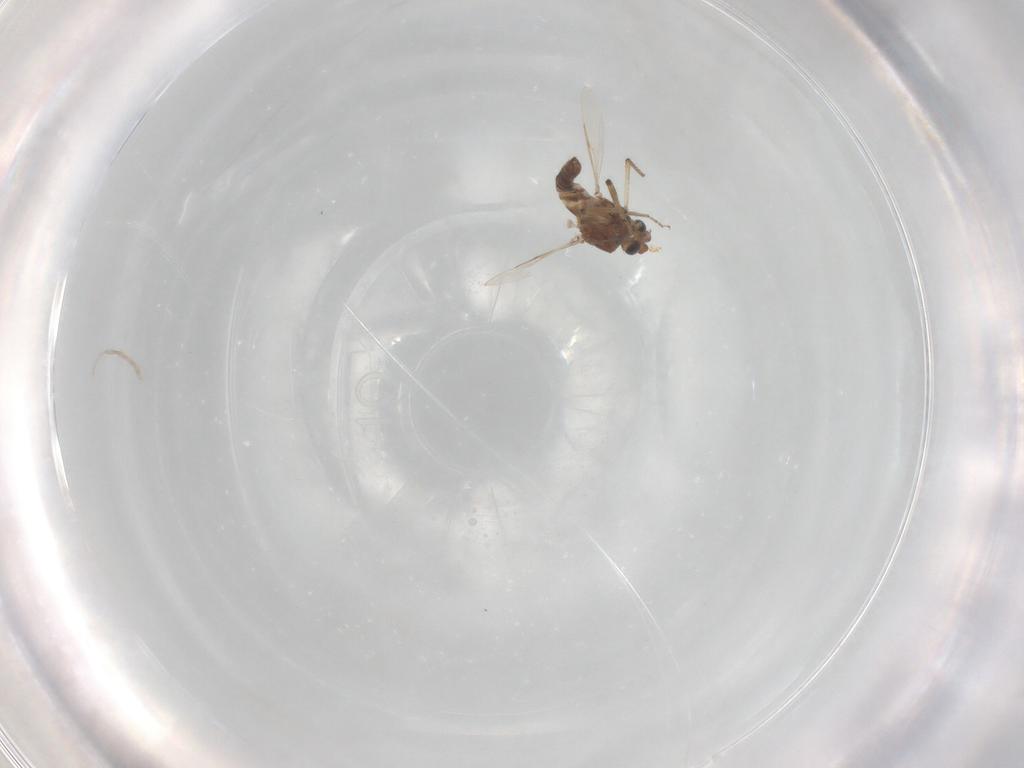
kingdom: Animalia
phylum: Arthropoda
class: Insecta
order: Diptera
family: Ceratopogonidae
